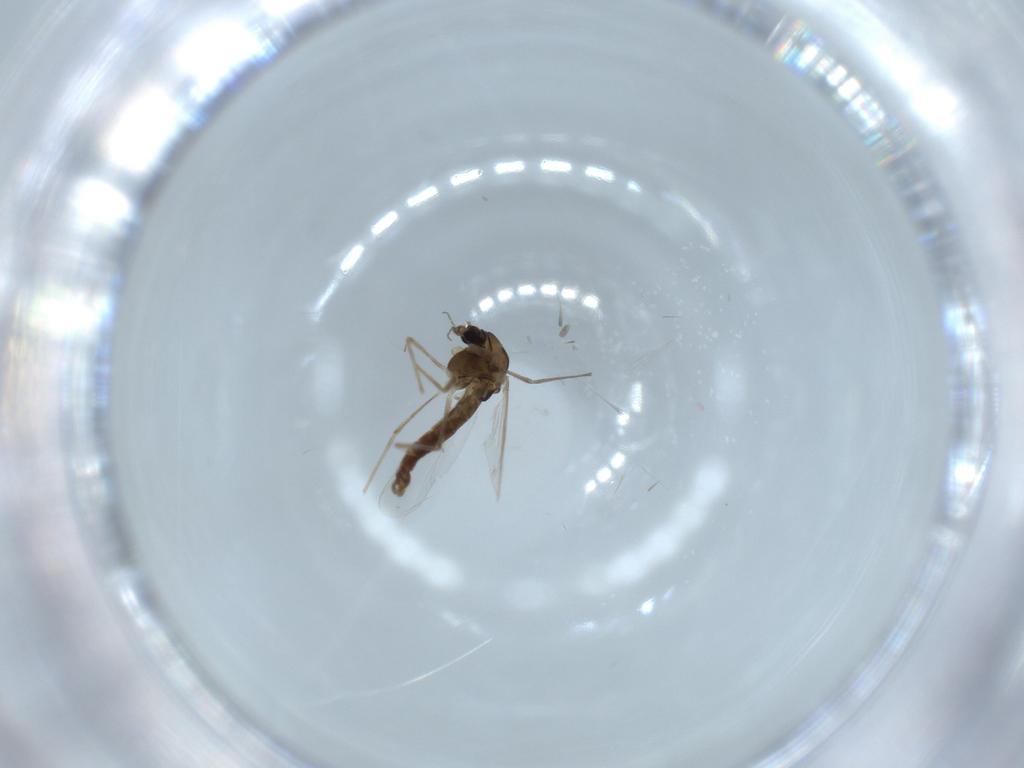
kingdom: Animalia
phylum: Arthropoda
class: Insecta
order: Diptera
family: Chironomidae
